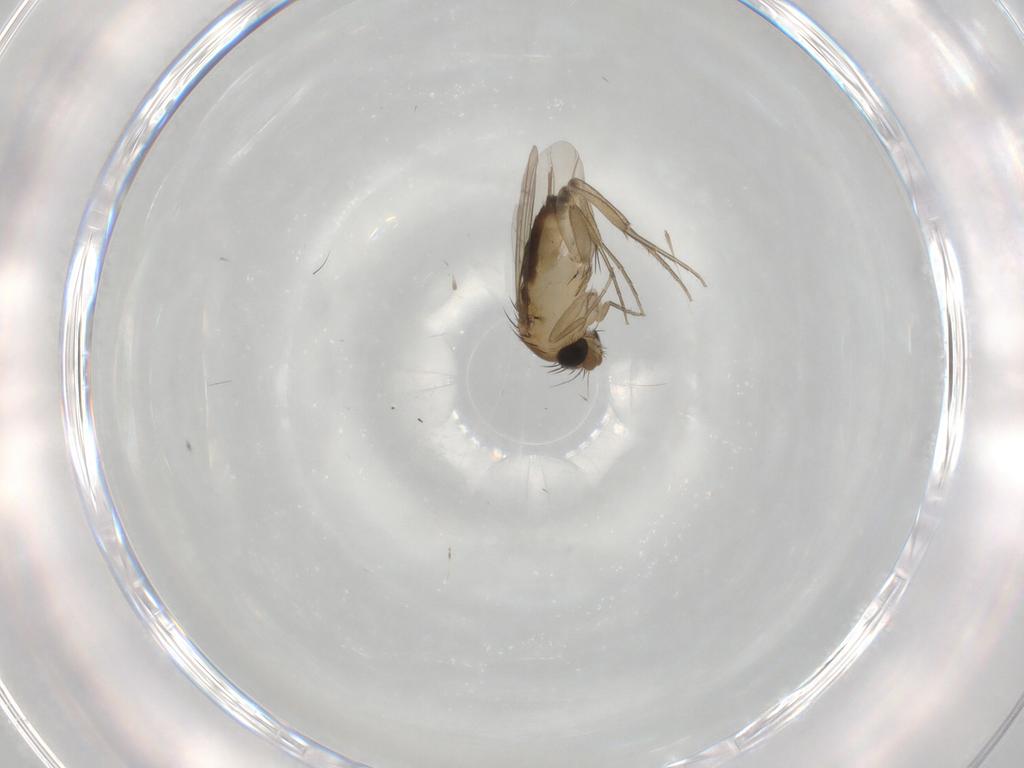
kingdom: Animalia
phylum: Arthropoda
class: Insecta
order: Diptera
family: Phoridae
